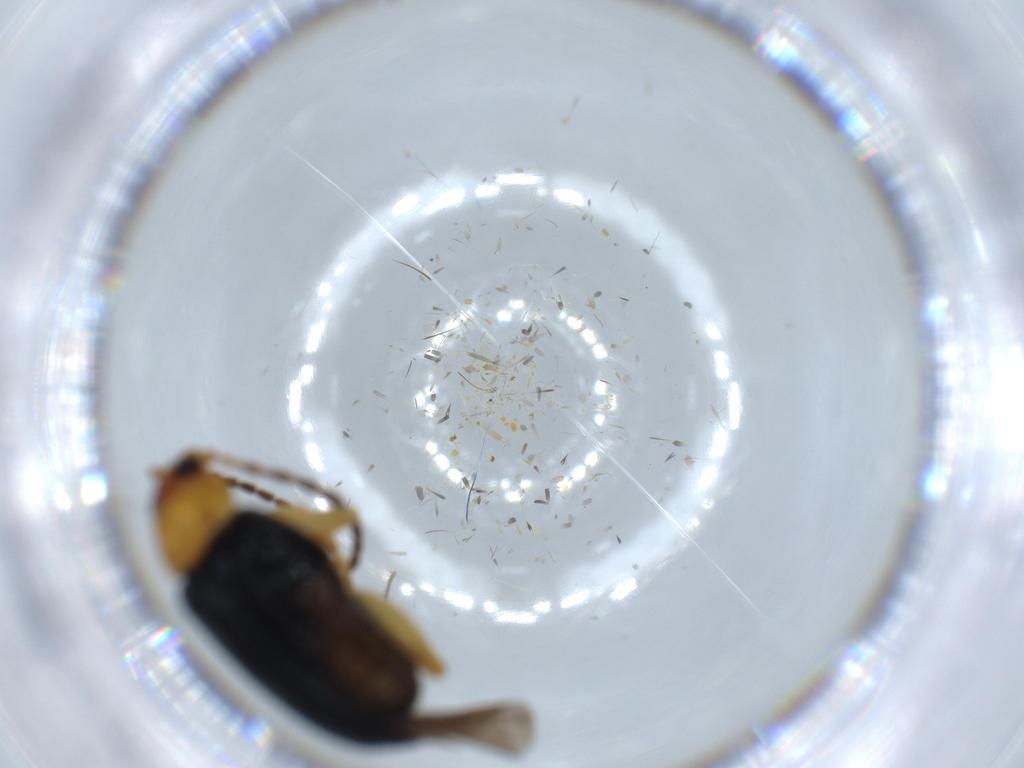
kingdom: Animalia
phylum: Arthropoda
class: Insecta
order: Coleoptera
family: Chrysomelidae
